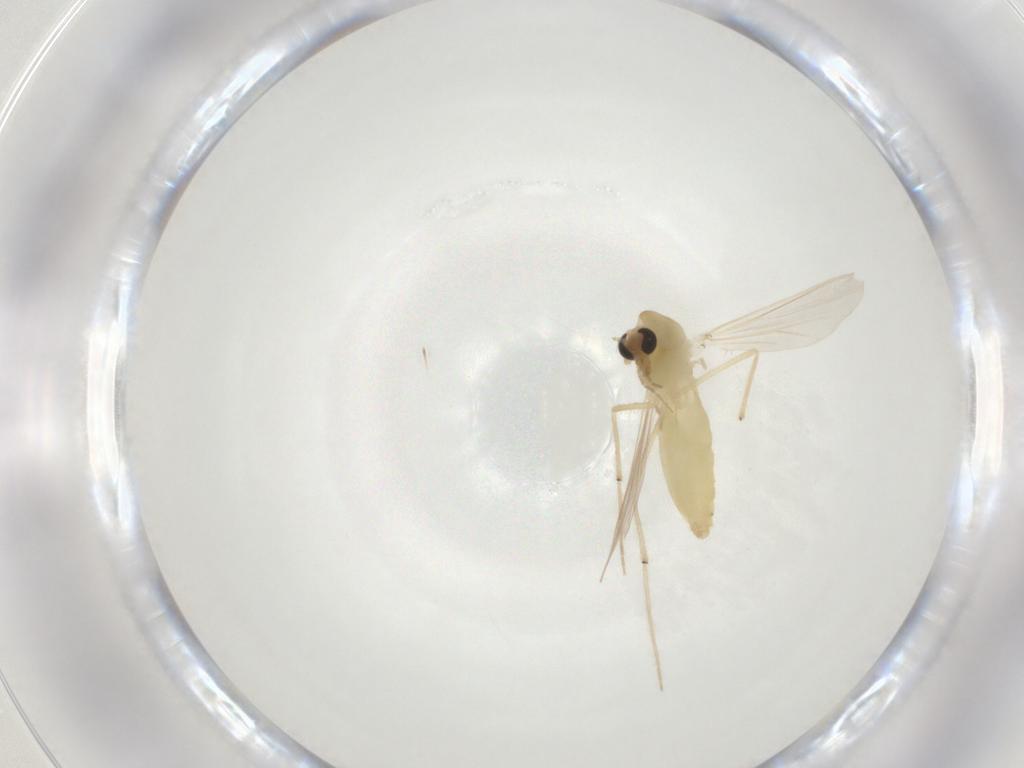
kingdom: Animalia
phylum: Arthropoda
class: Insecta
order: Diptera
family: Chironomidae
